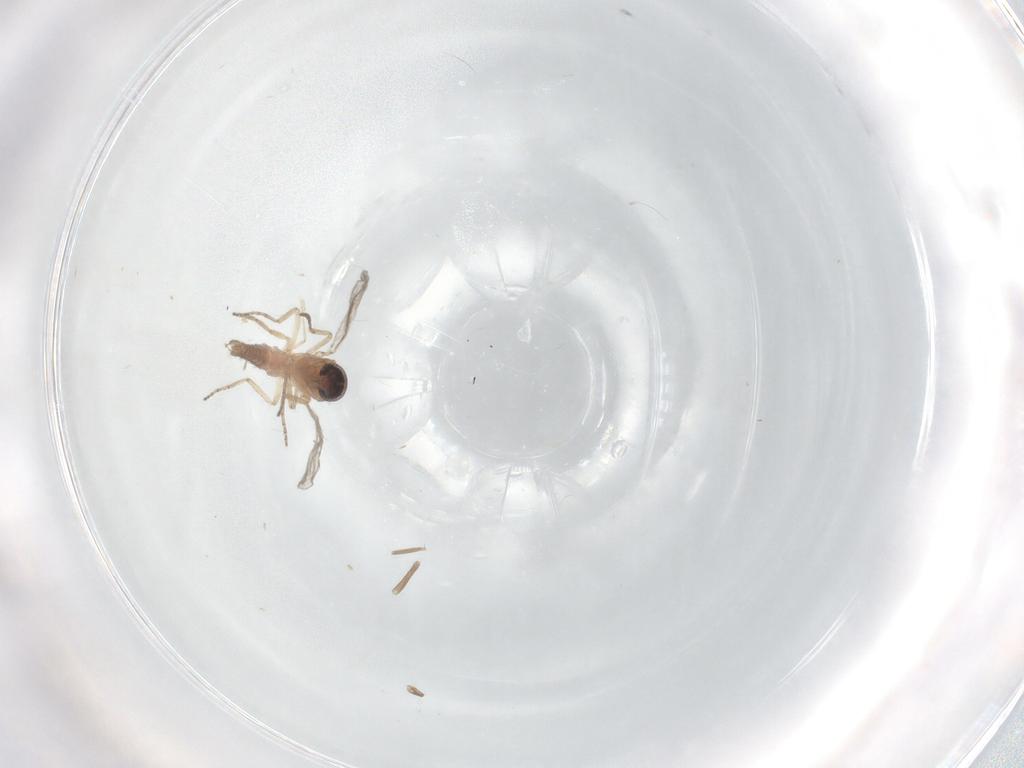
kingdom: Animalia
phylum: Arthropoda
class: Insecta
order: Diptera
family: Chironomidae
